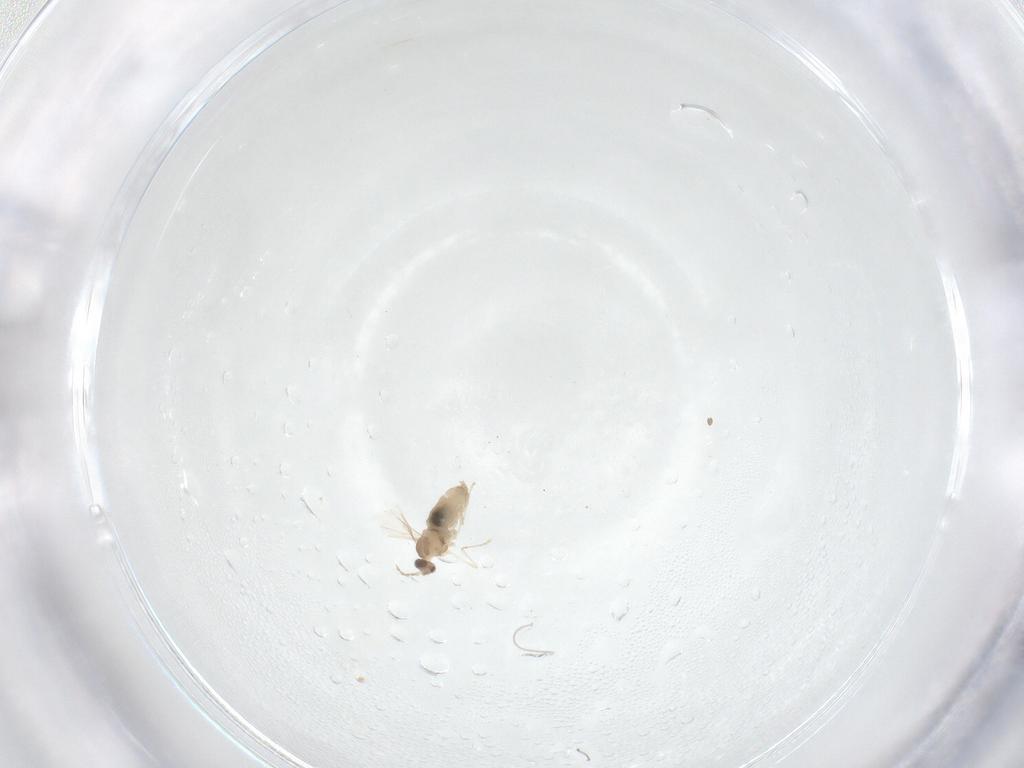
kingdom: Animalia
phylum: Arthropoda
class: Insecta
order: Diptera
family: Cecidomyiidae
